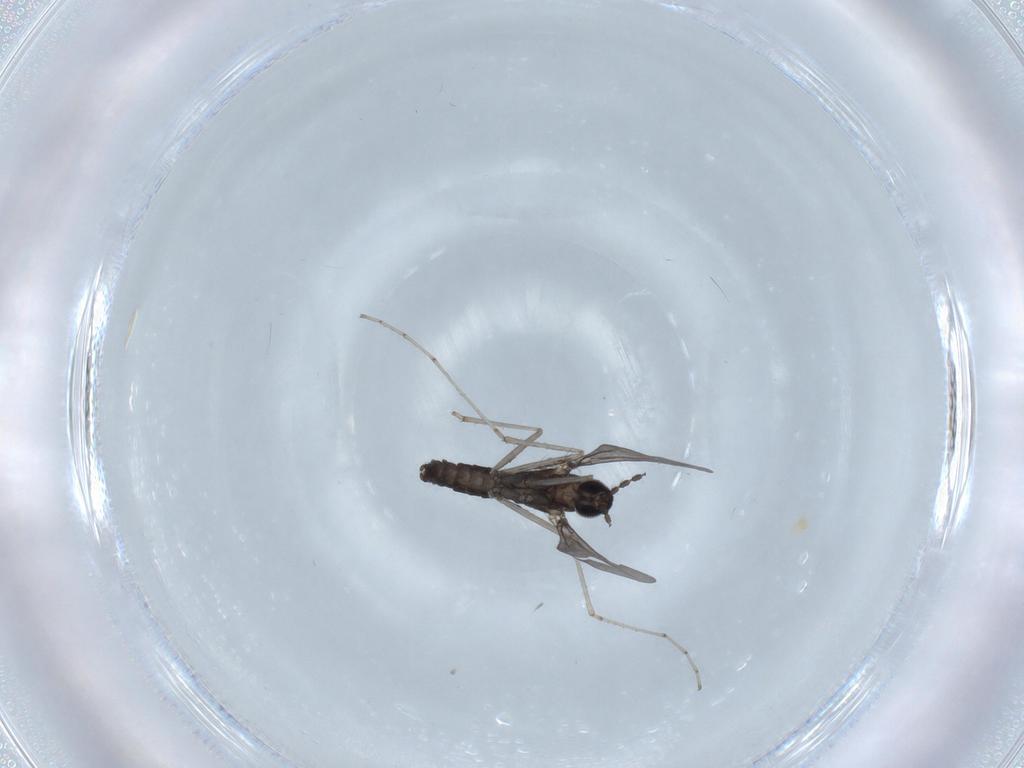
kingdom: Animalia
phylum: Arthropoda
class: Insecta
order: Diptera
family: Cecidomyiidae
